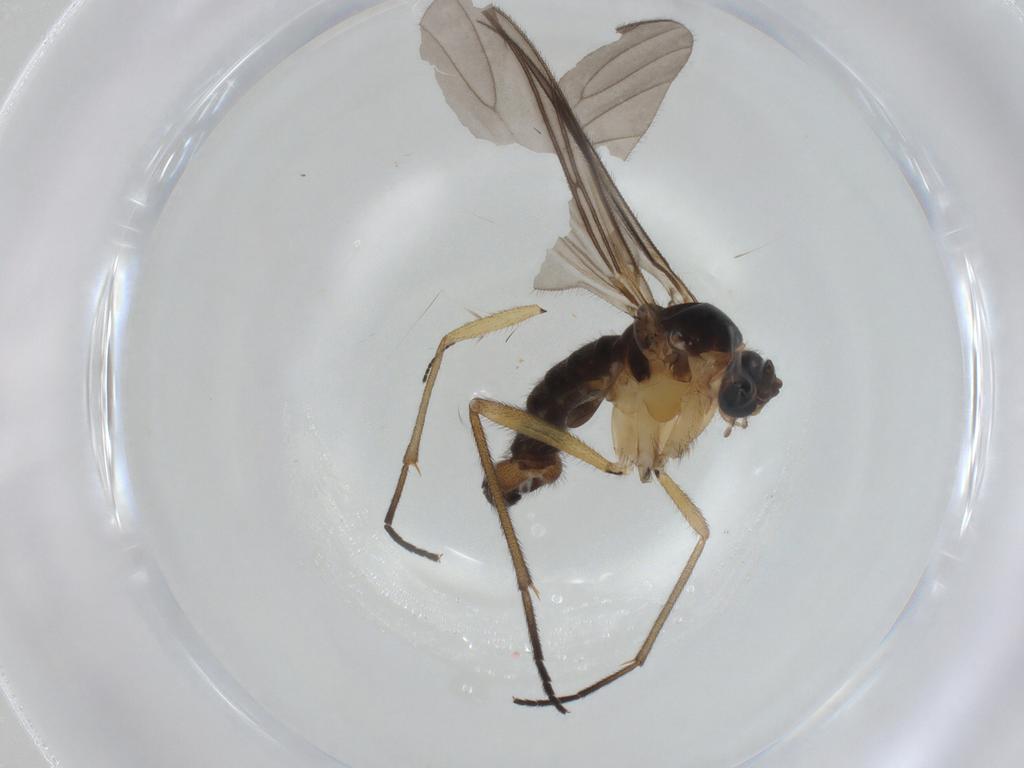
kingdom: Animalia
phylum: Arthropoda
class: Insecta
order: Diptera
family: Sciaridae
